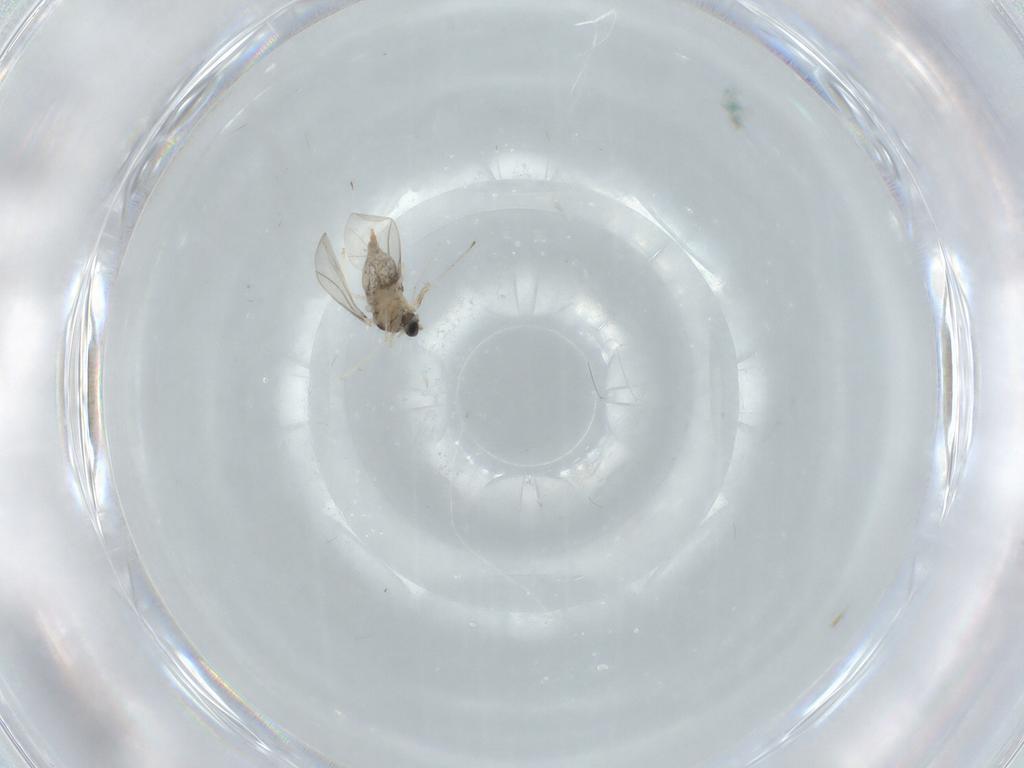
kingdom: Animalia
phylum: Arthropoda
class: Insecta
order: Diptera
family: Cecidomyiidae
